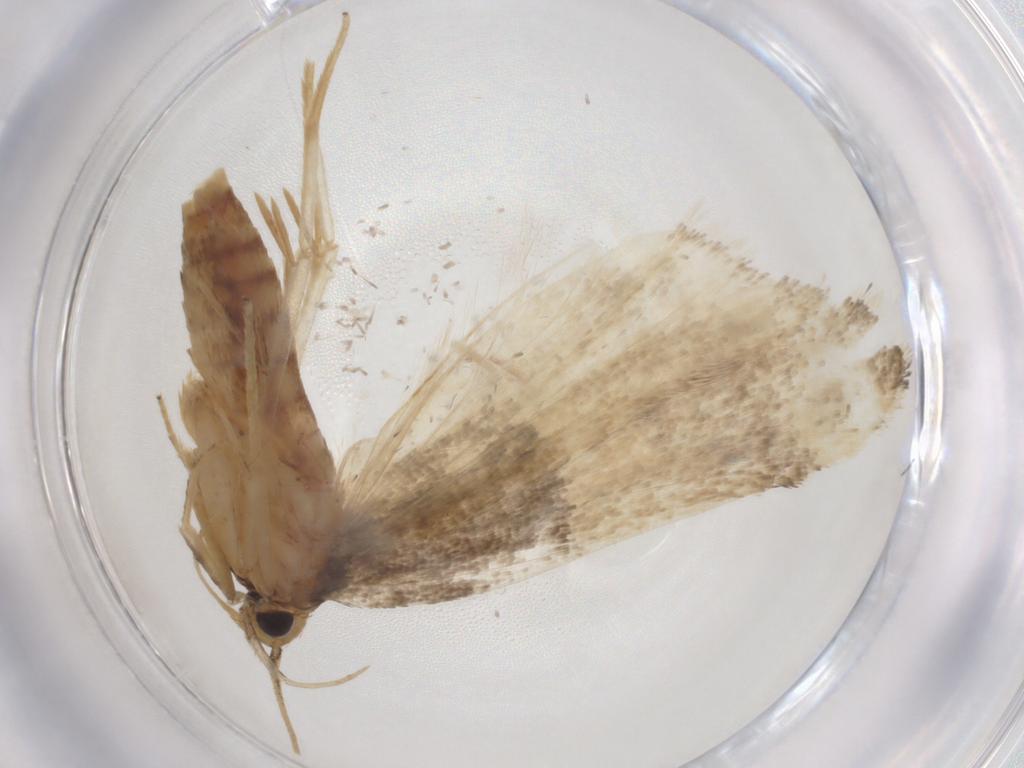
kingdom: Animalia
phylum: Arthropoda
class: Insecta
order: Lepidoptera
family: Lecithoceridae
